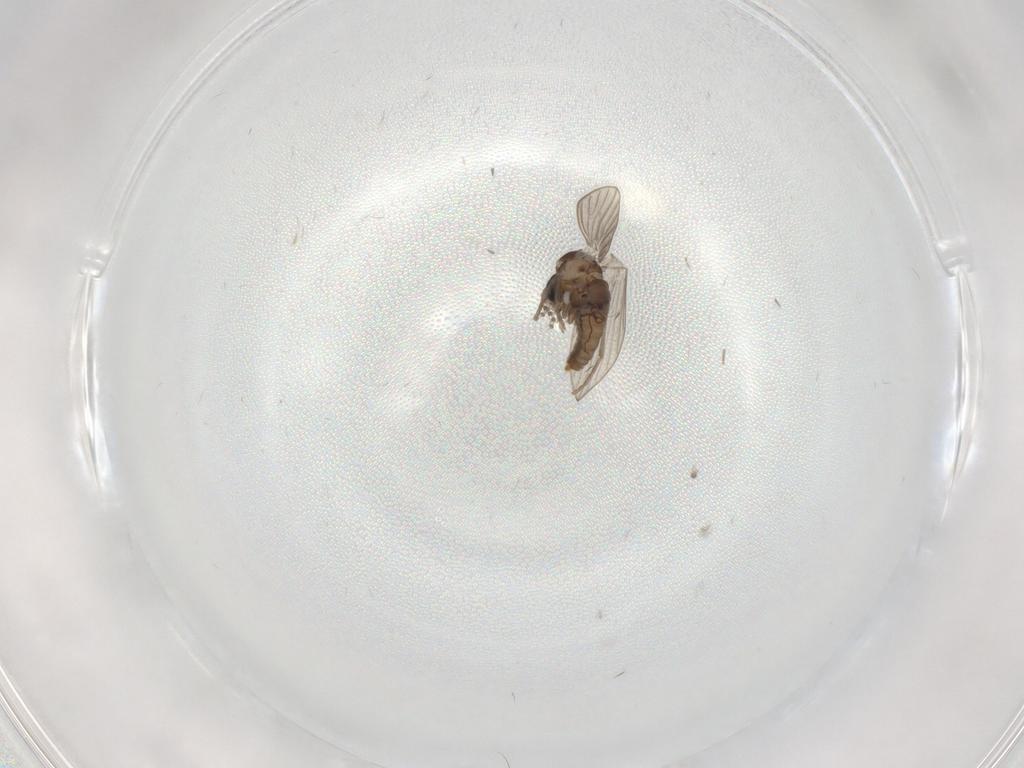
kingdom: Animalia
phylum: Arthropoda
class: Insecta
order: Diptera
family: Psychodidae
